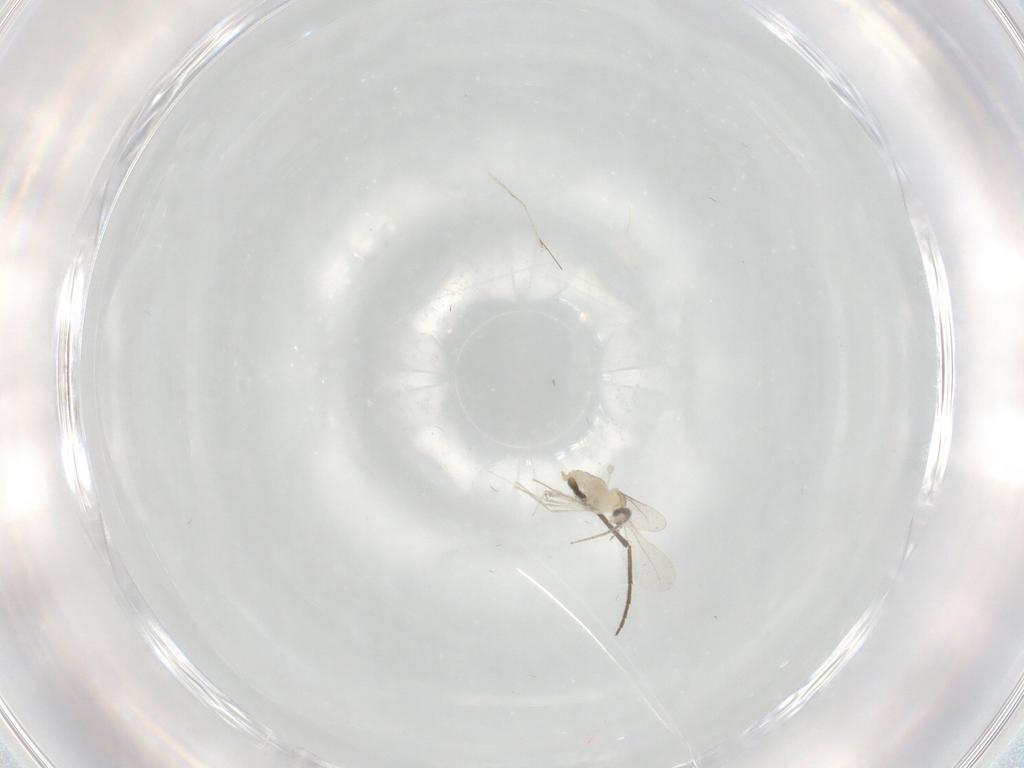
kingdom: Animalia
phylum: Arthropoda
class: Insecta
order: Diptera
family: Cecidomyiidae
